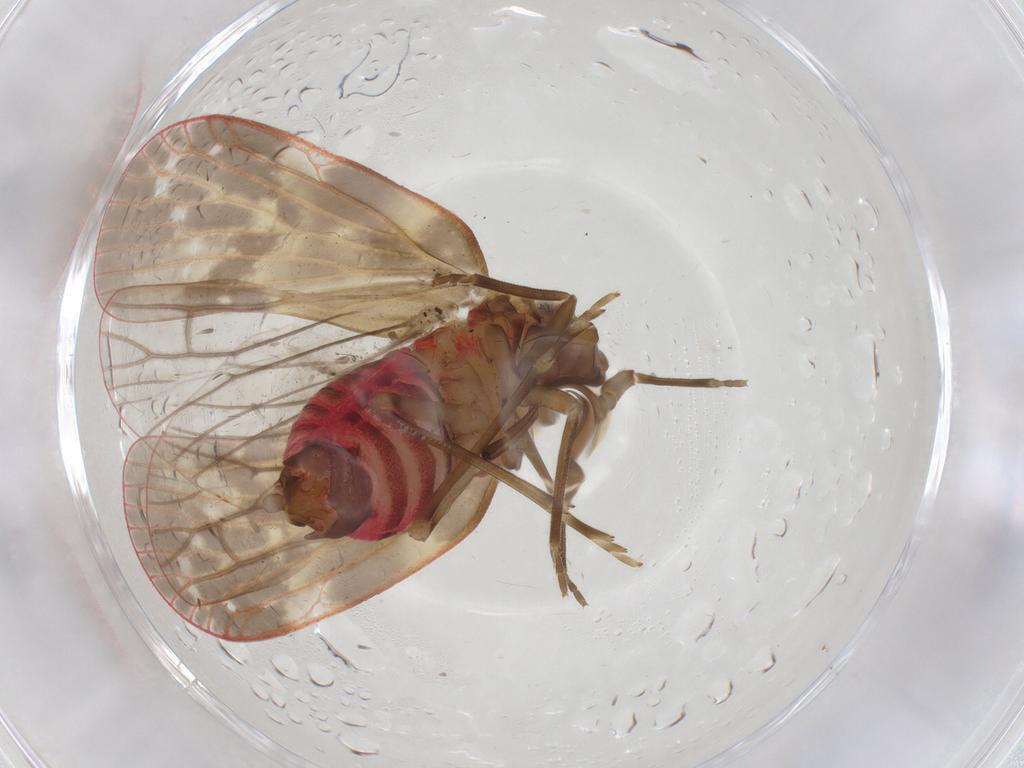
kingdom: Animalia
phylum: Arthropoda
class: Insecta
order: Hemiptera
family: Achilidae
